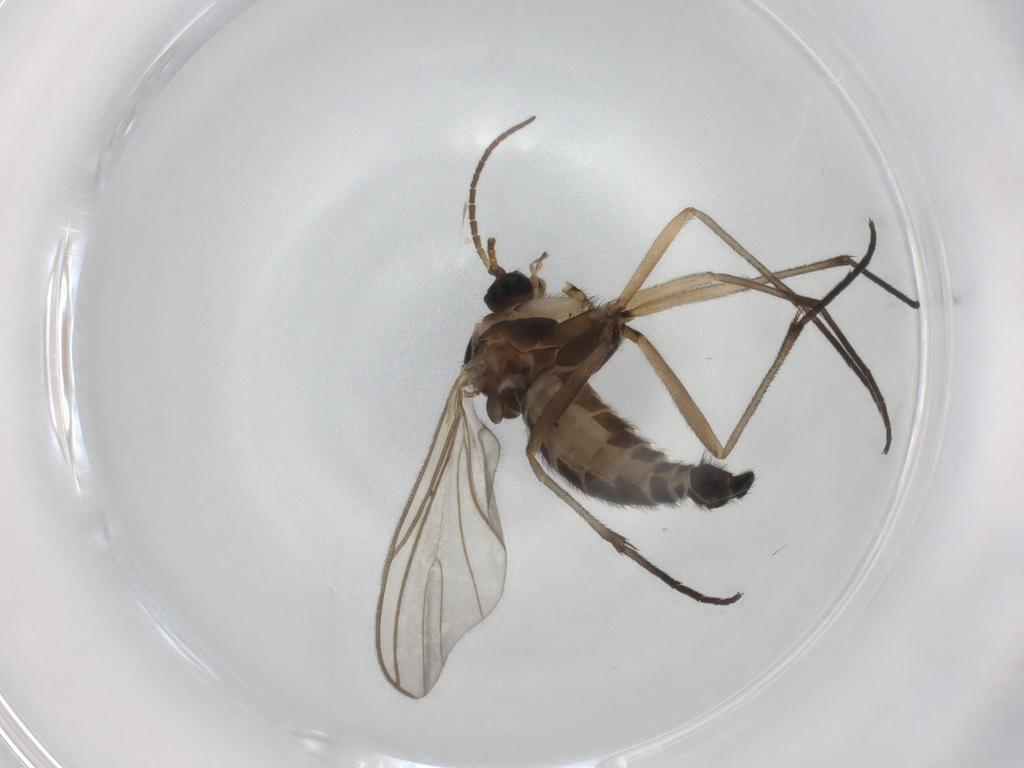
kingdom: Animalia
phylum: Arthropoda
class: Insecta
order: Diptera
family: Sciaridae
